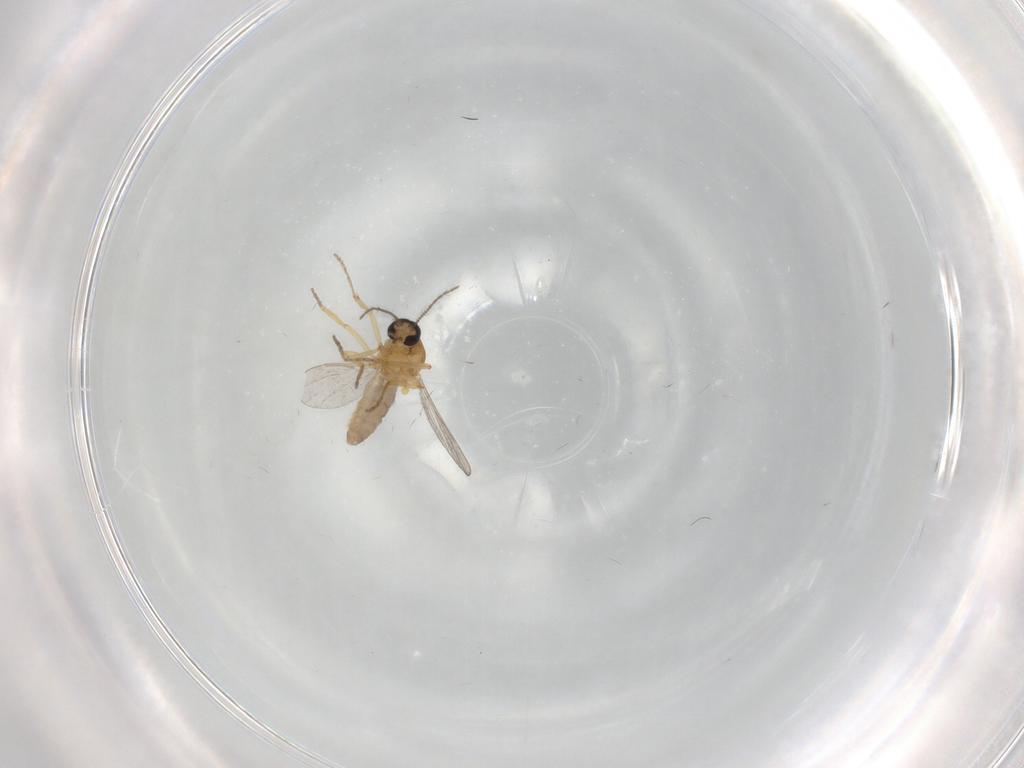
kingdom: Animalia
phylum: Arthropoda
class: Insecta
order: Diptera
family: Ceratopogonidae
